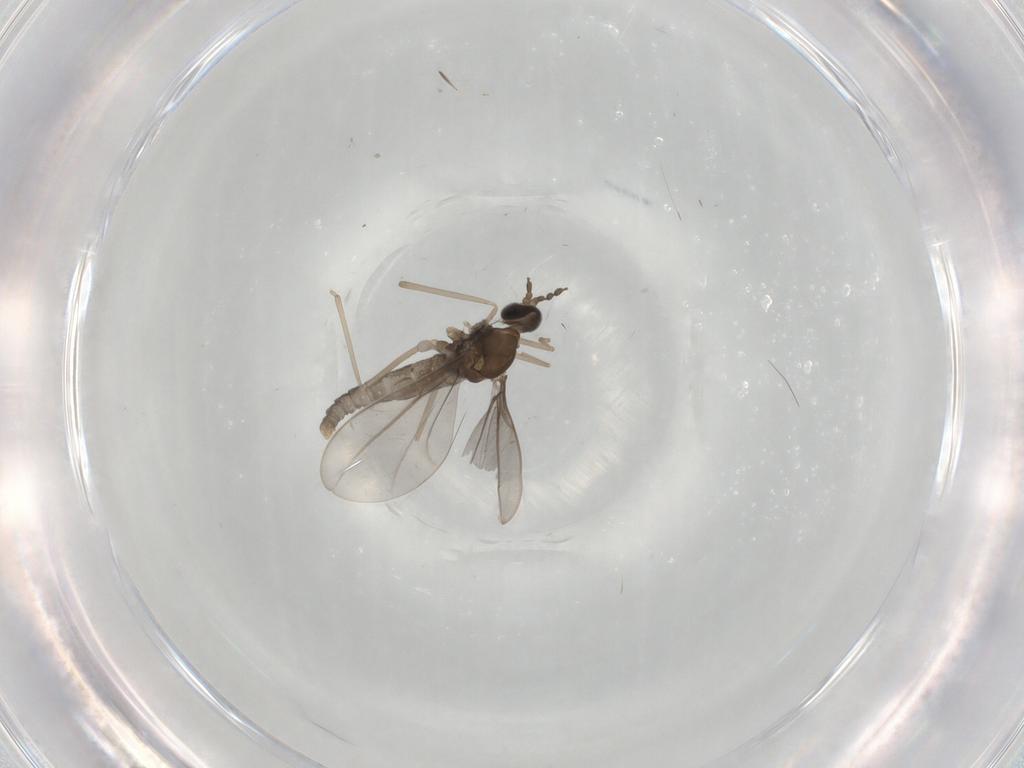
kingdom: Animalia
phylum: Arthropoda
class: Insecta
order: Diptera
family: Cecidomyiidae
